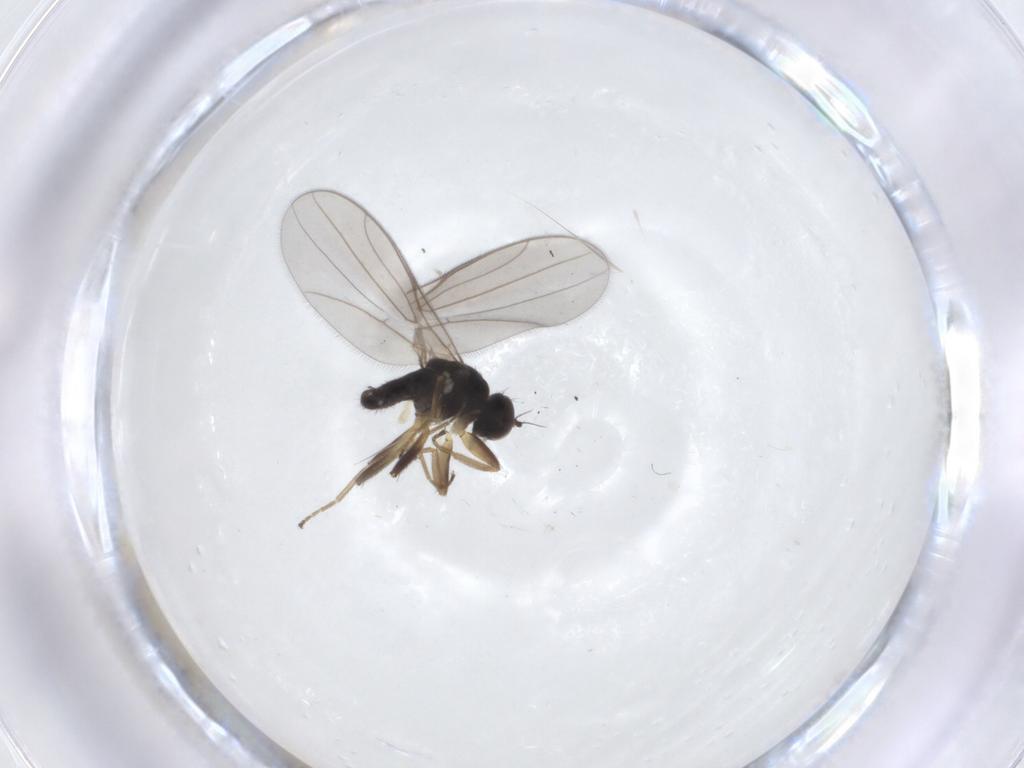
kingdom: Animalia
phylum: Arthropoda
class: Insecta
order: Diptera
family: Hybotidae
